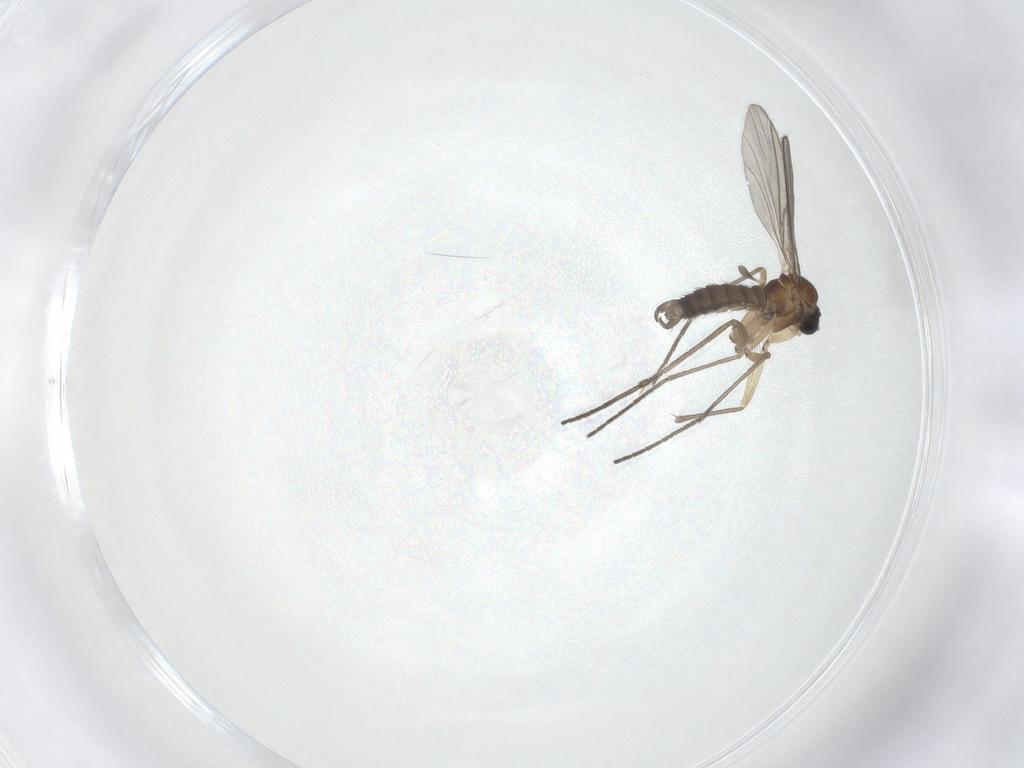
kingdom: Animalia
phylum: Arthropoda
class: Insecta
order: Diptera
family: Sciaridae
